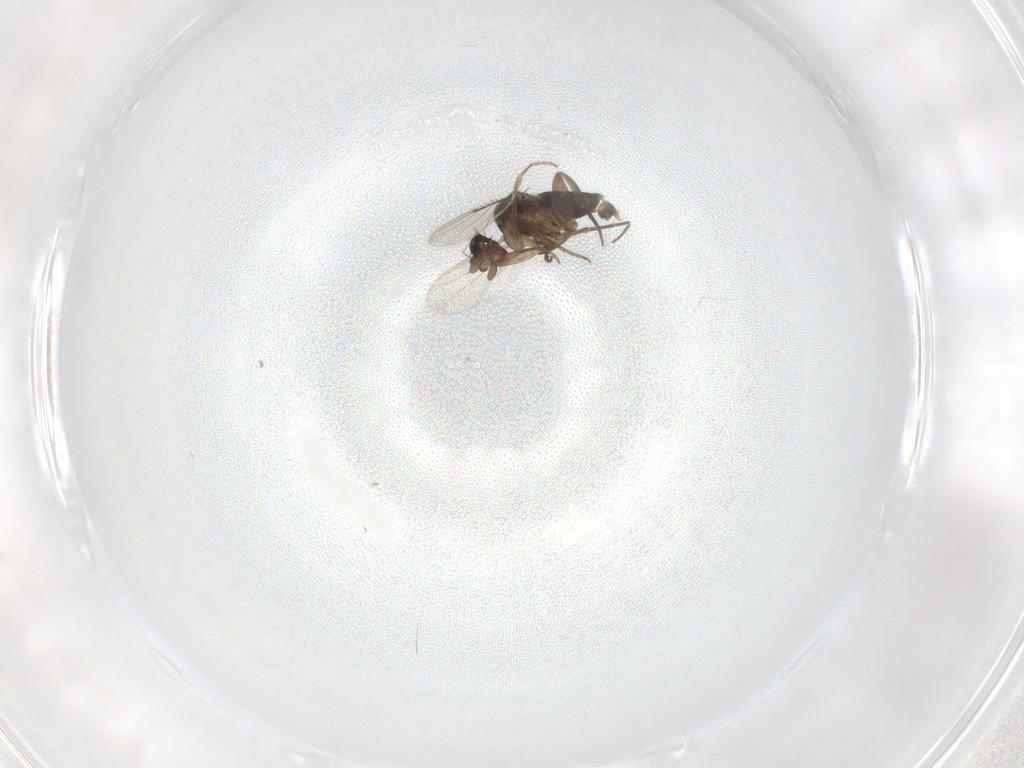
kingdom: Animalia
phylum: Arthropoda
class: Insecta
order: Diptera
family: Phoridae
